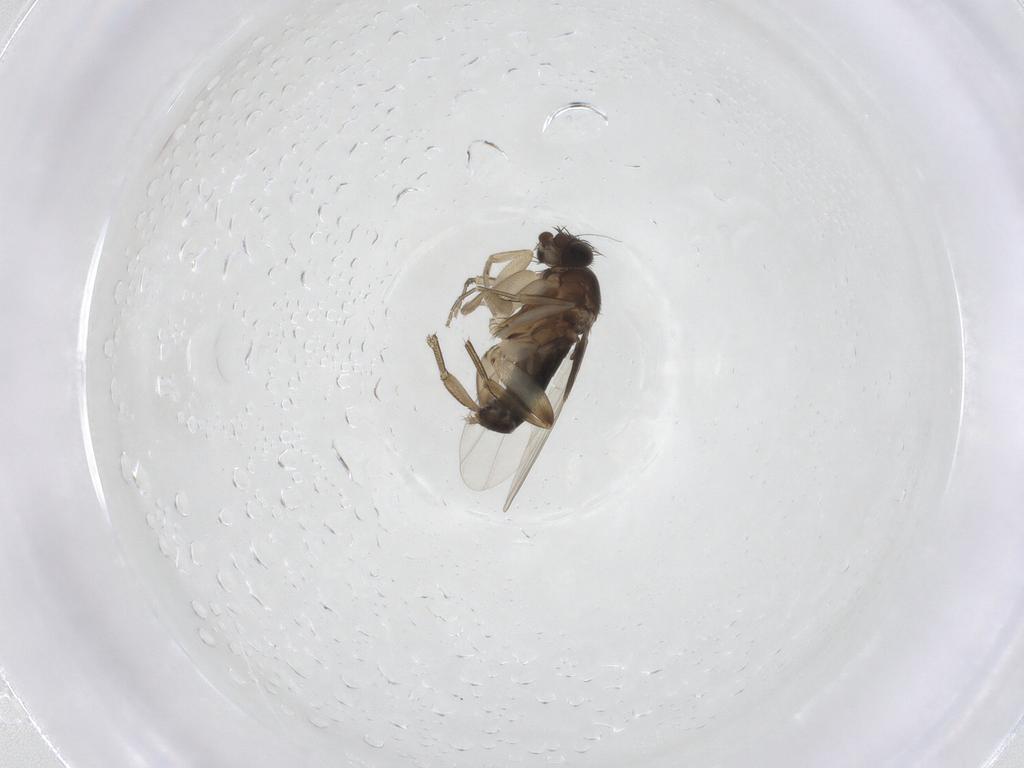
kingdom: Animalia
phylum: Arthropoda
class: Insecta
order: Diptera
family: Phoridae
